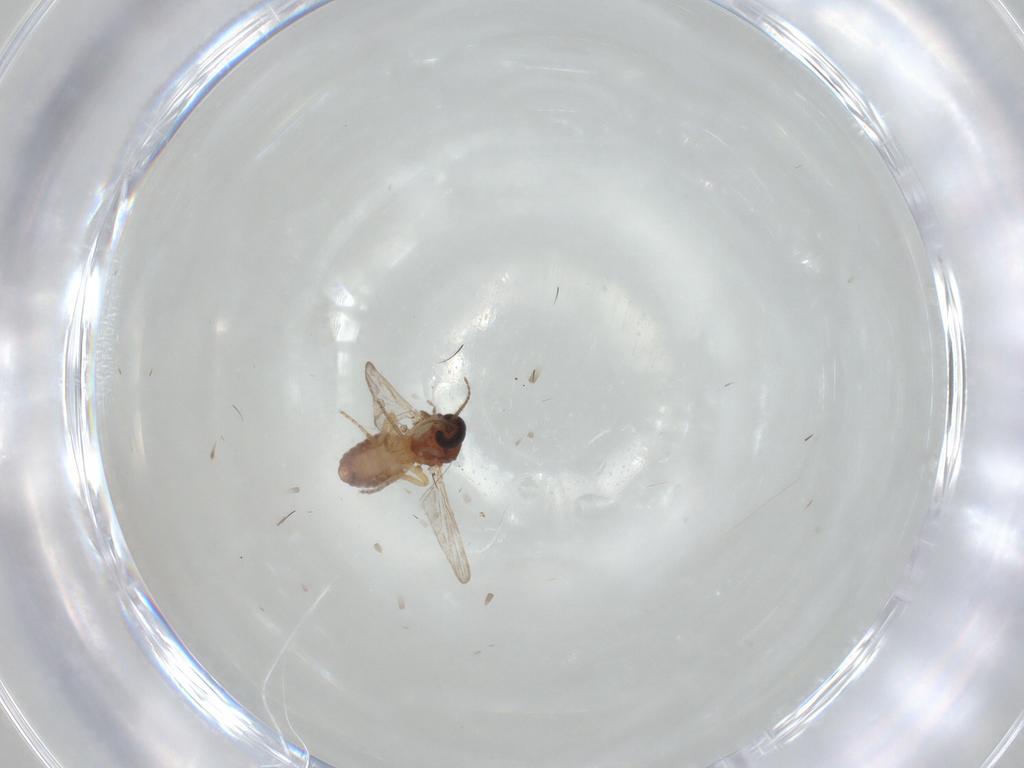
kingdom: Animalia
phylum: Arthropoda
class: Insecta
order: Diptera
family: Ceratopogonidae
